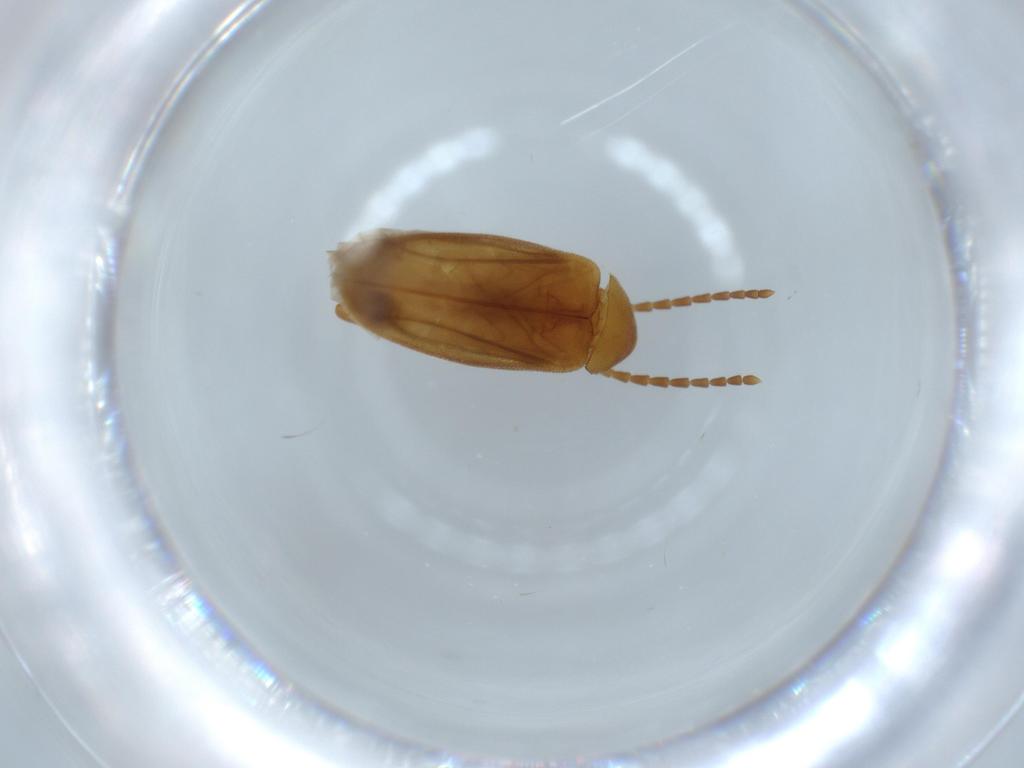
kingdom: Animalia
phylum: Arthropoda
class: Insecta
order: Coleoptera
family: Scraptiidae
